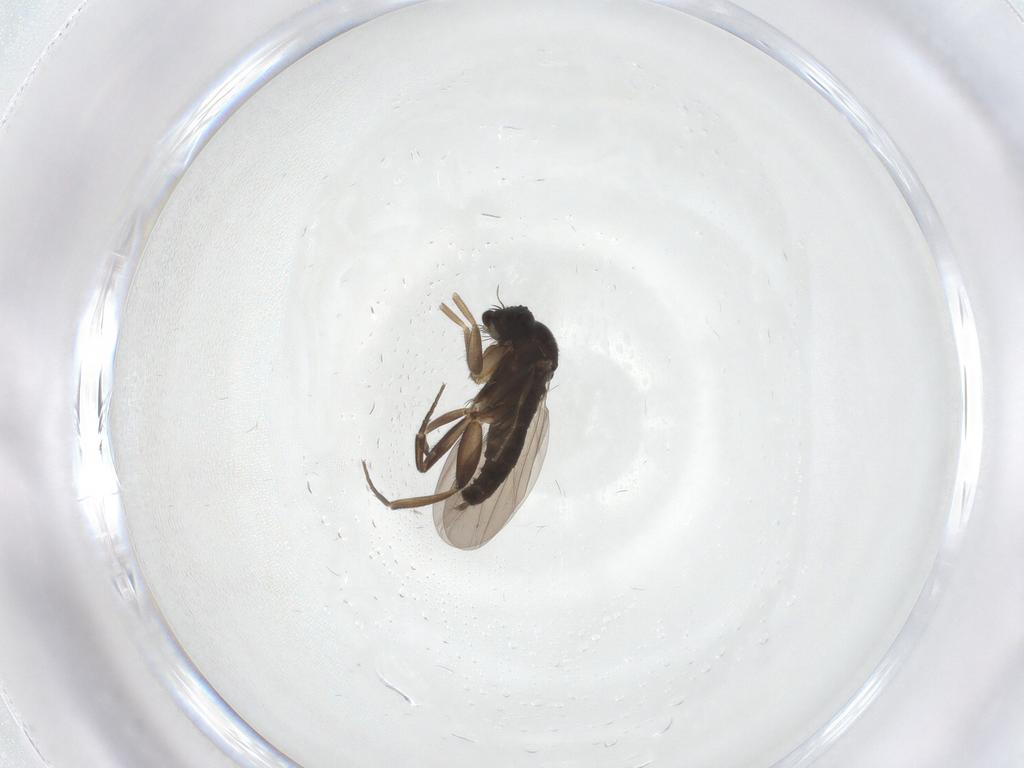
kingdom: Animalia
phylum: Arthropoda
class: Insecta
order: Diptera
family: Phoridae
